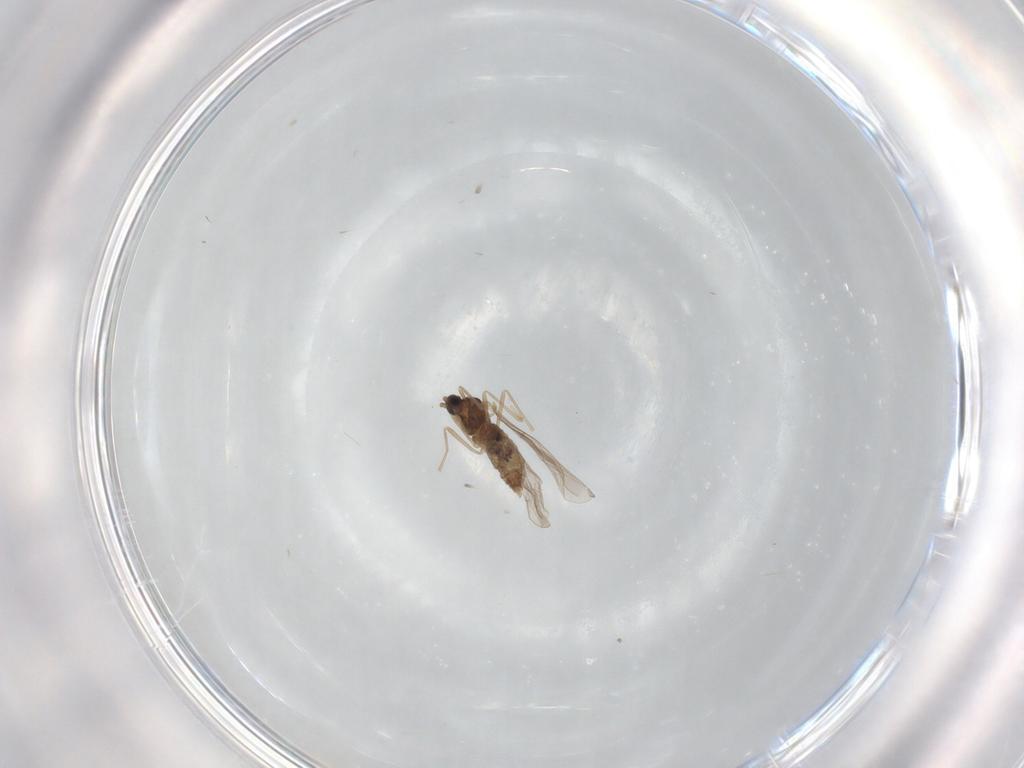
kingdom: Animalia
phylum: Arthropoda
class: Insecta
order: Diptera
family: Cecidomyiidae
